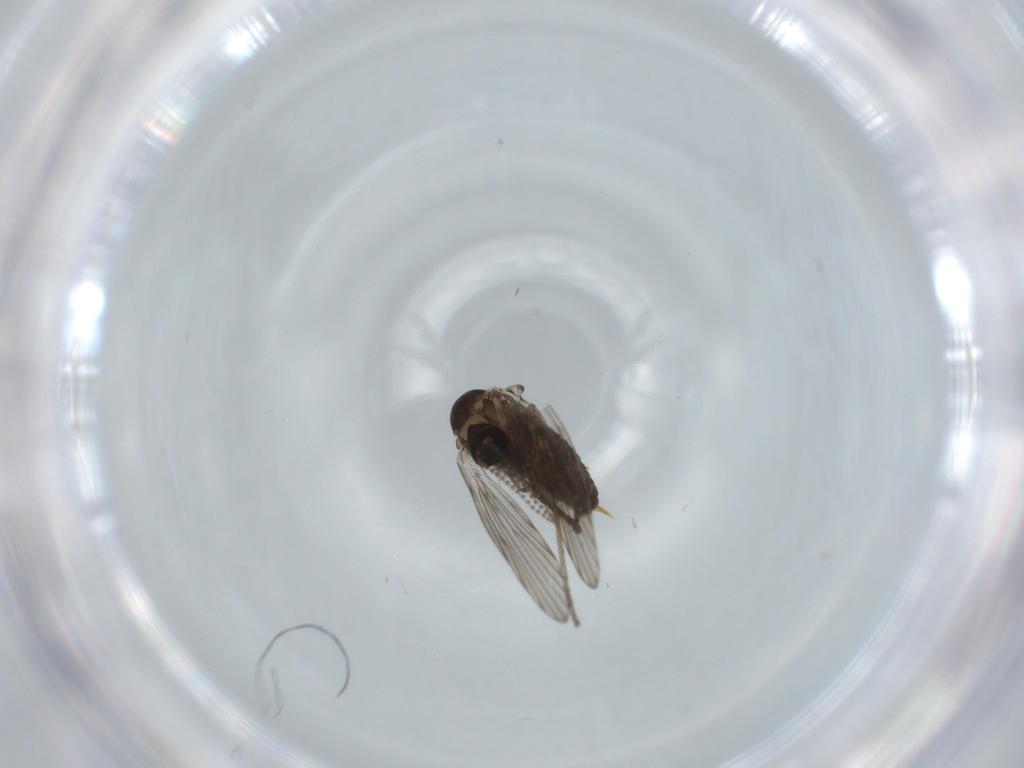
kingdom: Animalia
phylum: Arthropoda
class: Insecta
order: Diptera
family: Psychodidae
